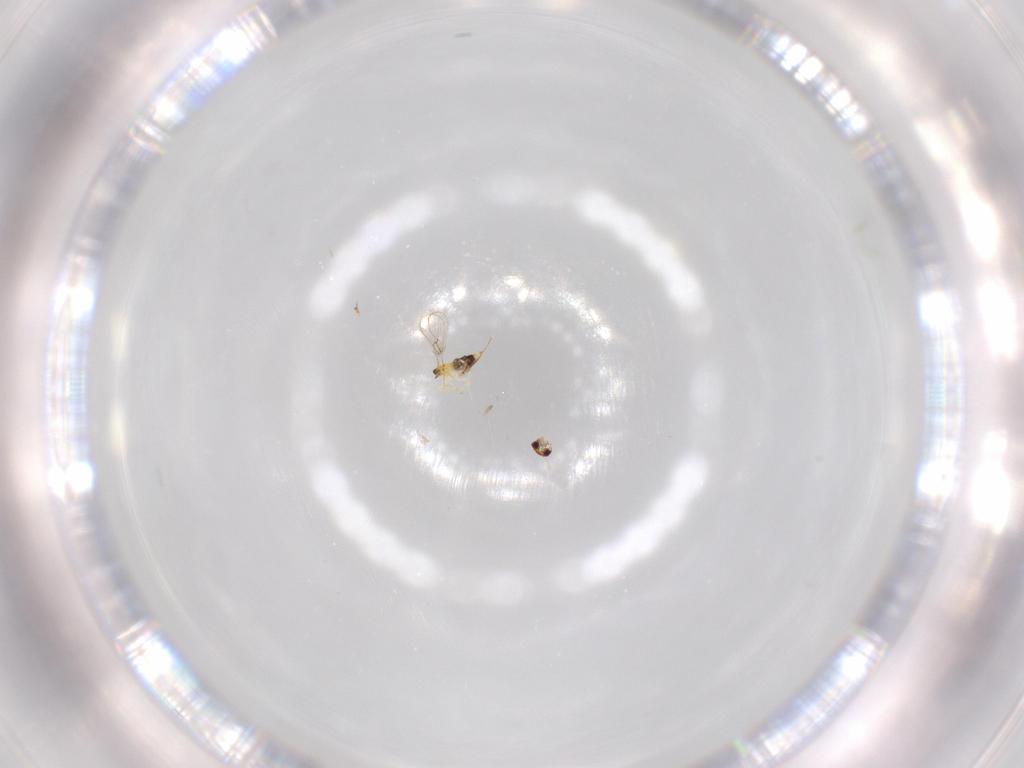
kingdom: Animalia
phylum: Arthropoda
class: Insecta
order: Hymenoptera
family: Trichogrammatidae
